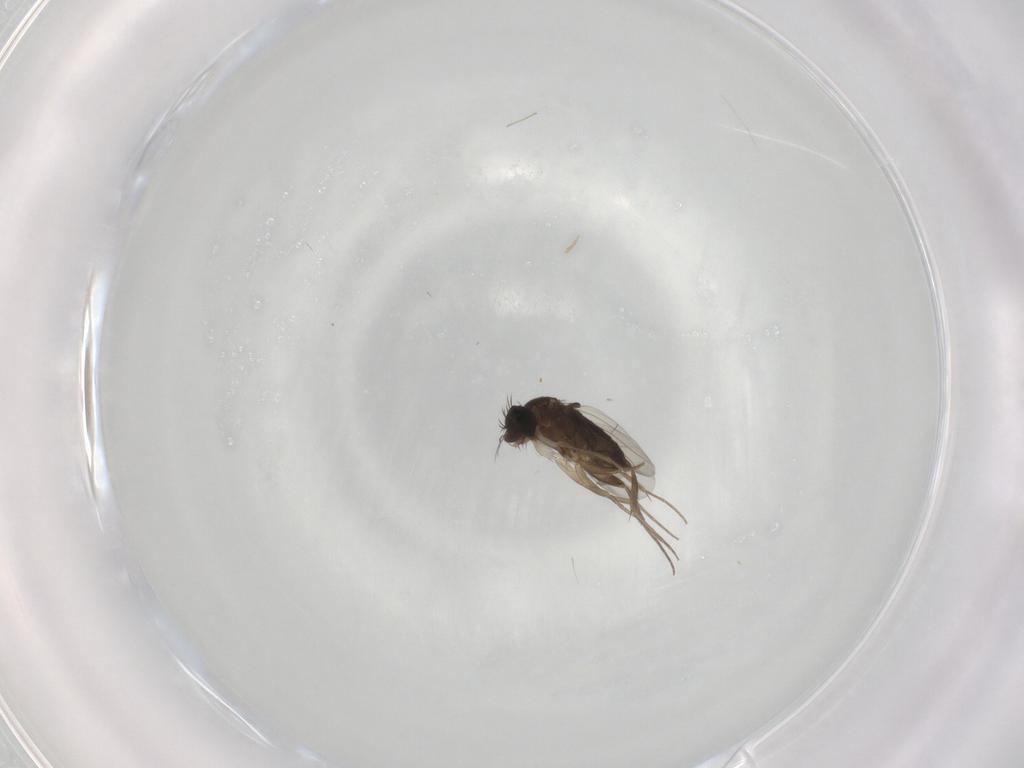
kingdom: Animalia
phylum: Arthropoda
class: Insecta
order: Diptera
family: Phoridae
